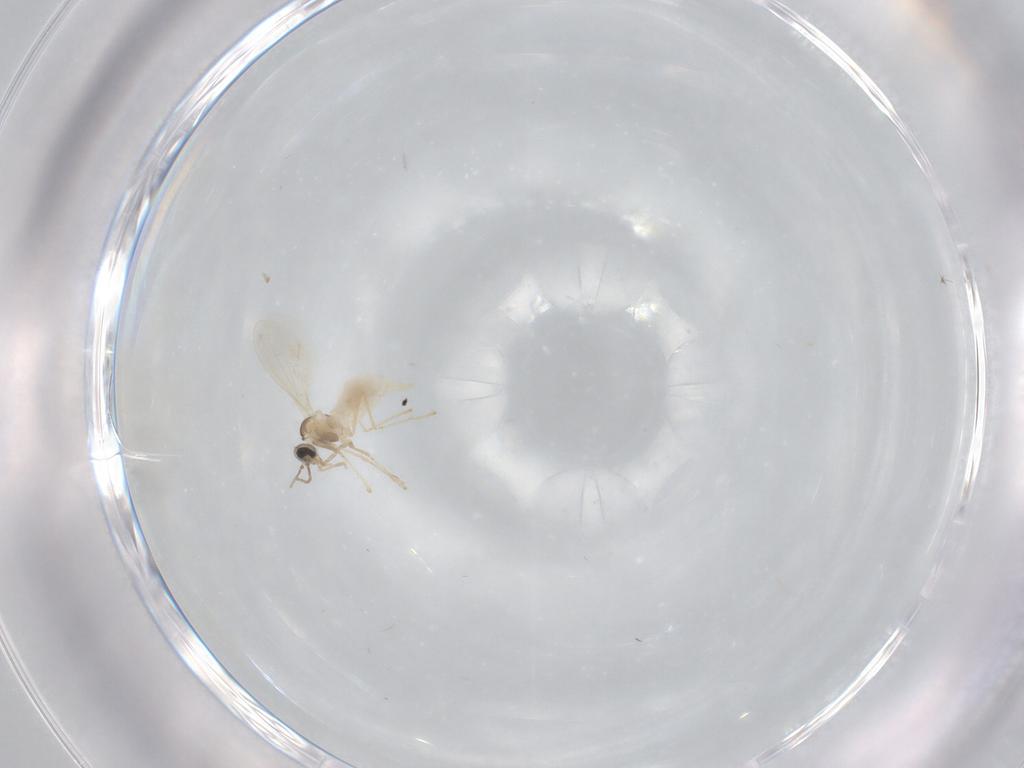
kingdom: Animalia
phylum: Arthropoda
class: Insecta
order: Diptera
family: Cecidomyiidae
